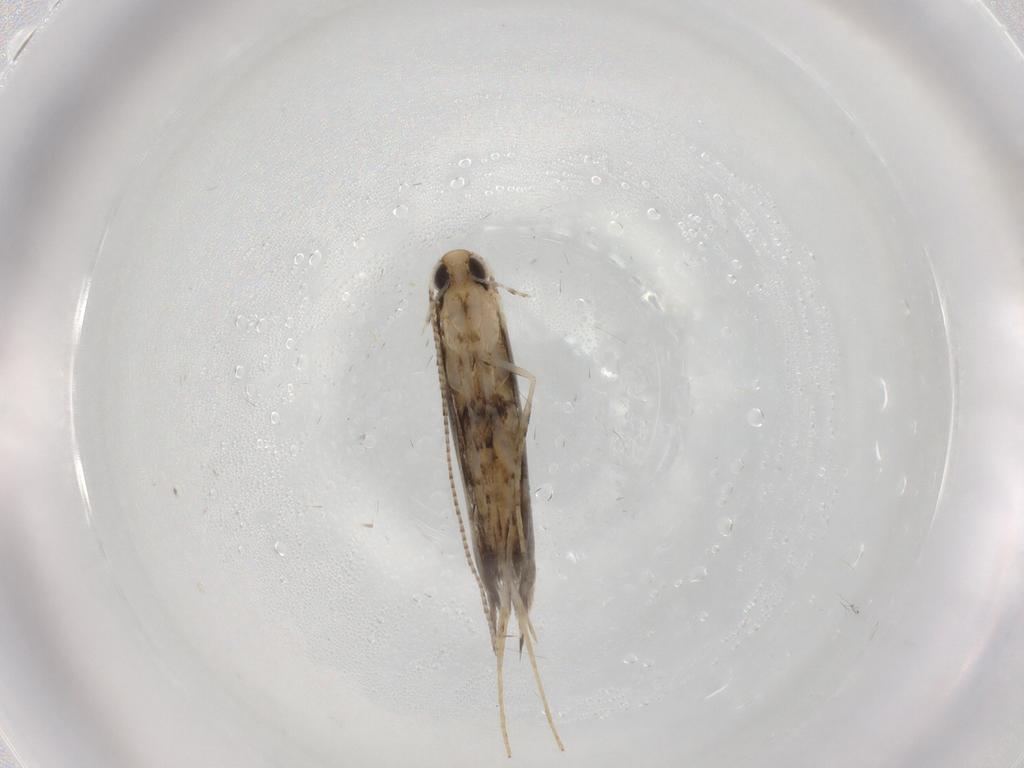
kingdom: Animalia
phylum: Arthropoda
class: Insecta
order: Lepidoptera
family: Gracillariidae
